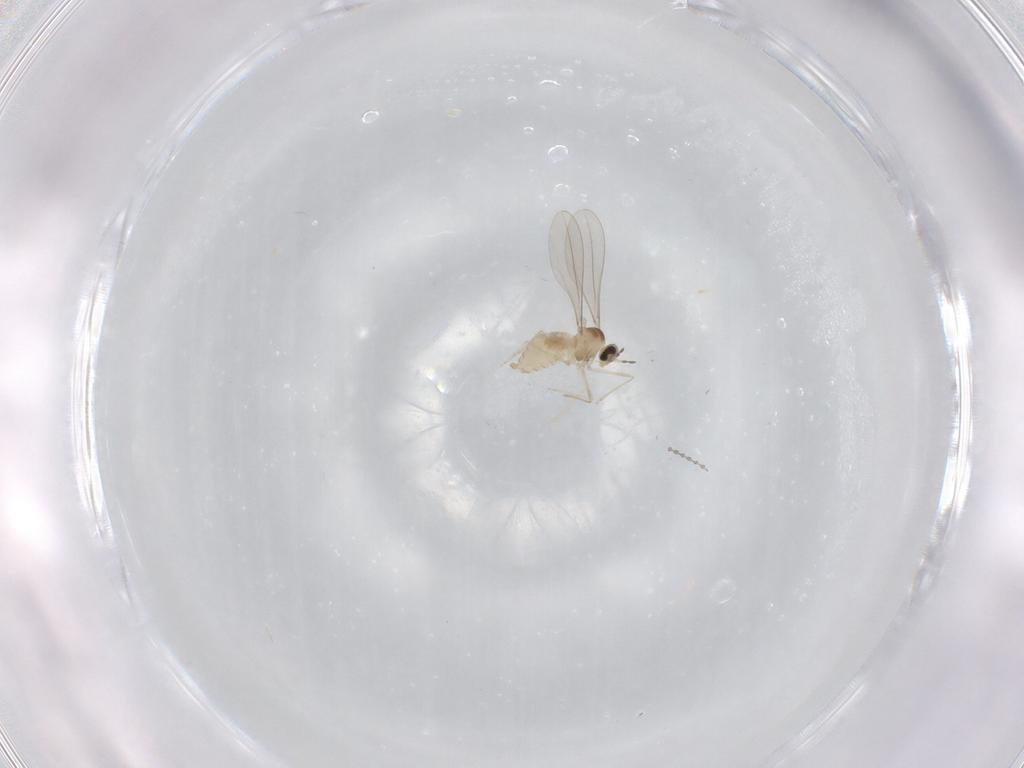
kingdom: Animalia
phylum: Arthropoda
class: Insecta
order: Diptera
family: Cecidomyiidae
